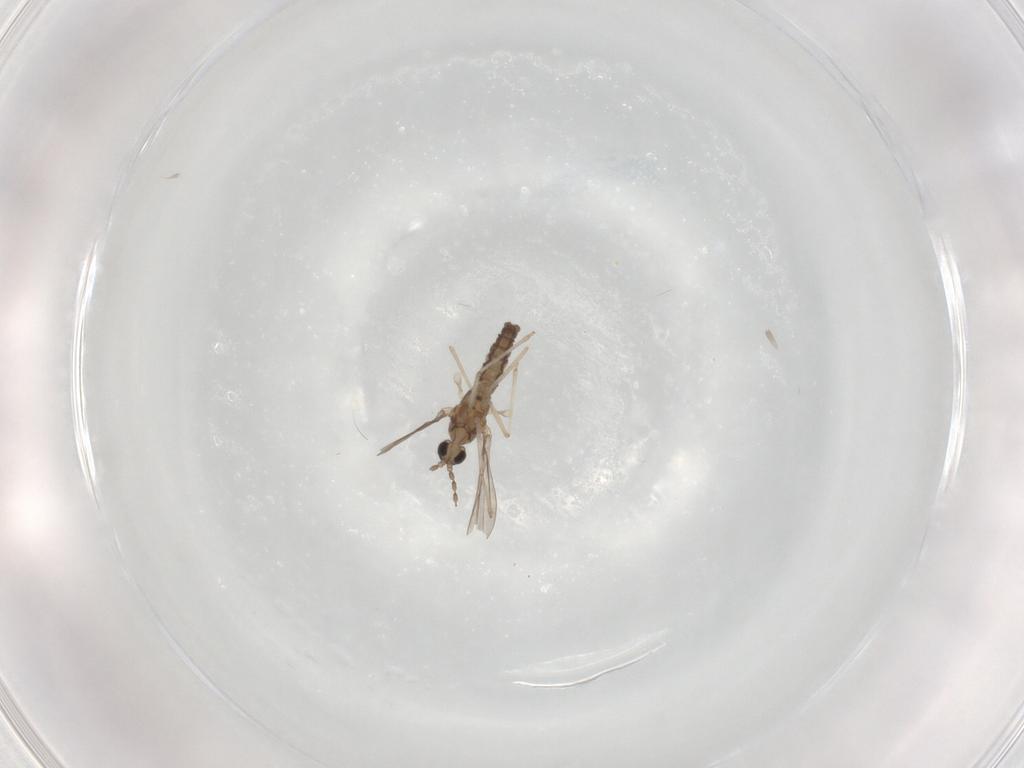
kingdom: Animalia
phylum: Arthropoda
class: Insecta
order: Diptera
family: Cecidomyiidae
